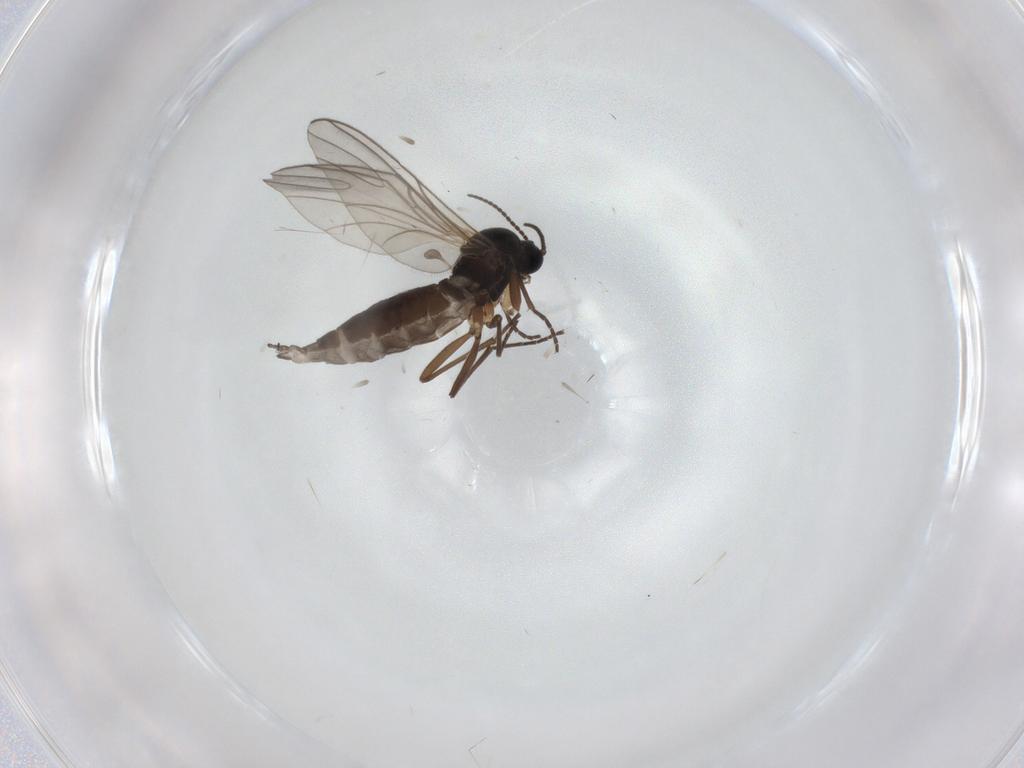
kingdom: Animalia
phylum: Arthropoda
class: Insecta
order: Diptera
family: Sciaridae
